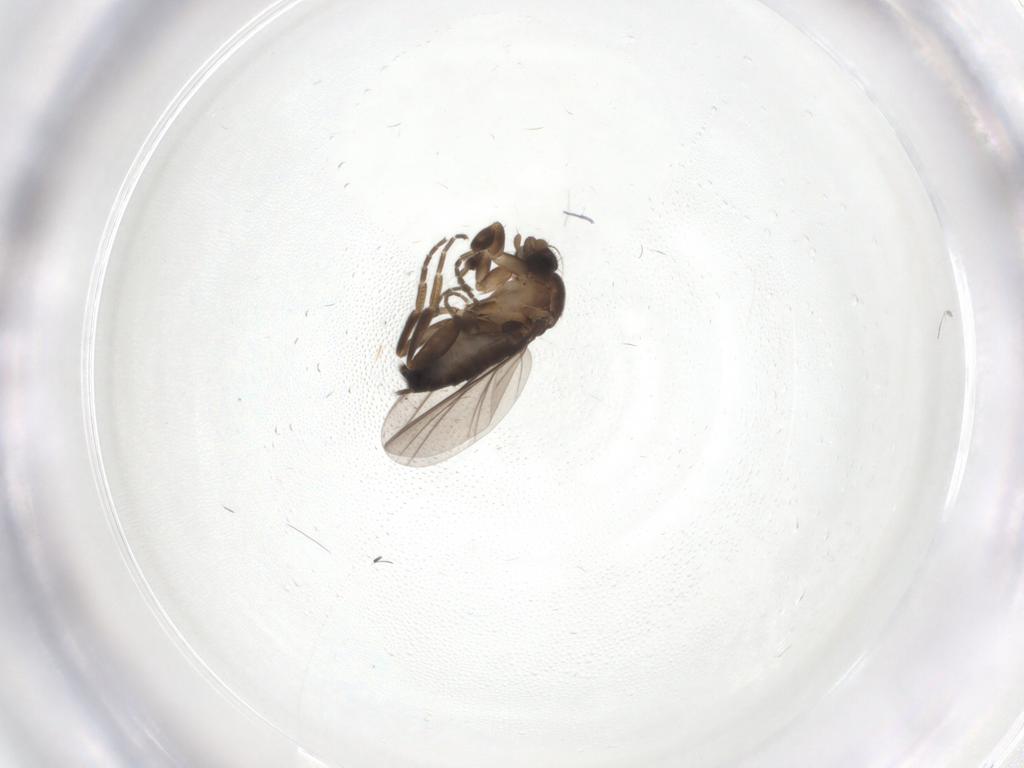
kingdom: Animalia
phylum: Arthropoda
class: Insecta
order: Diptera
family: Phoridae
